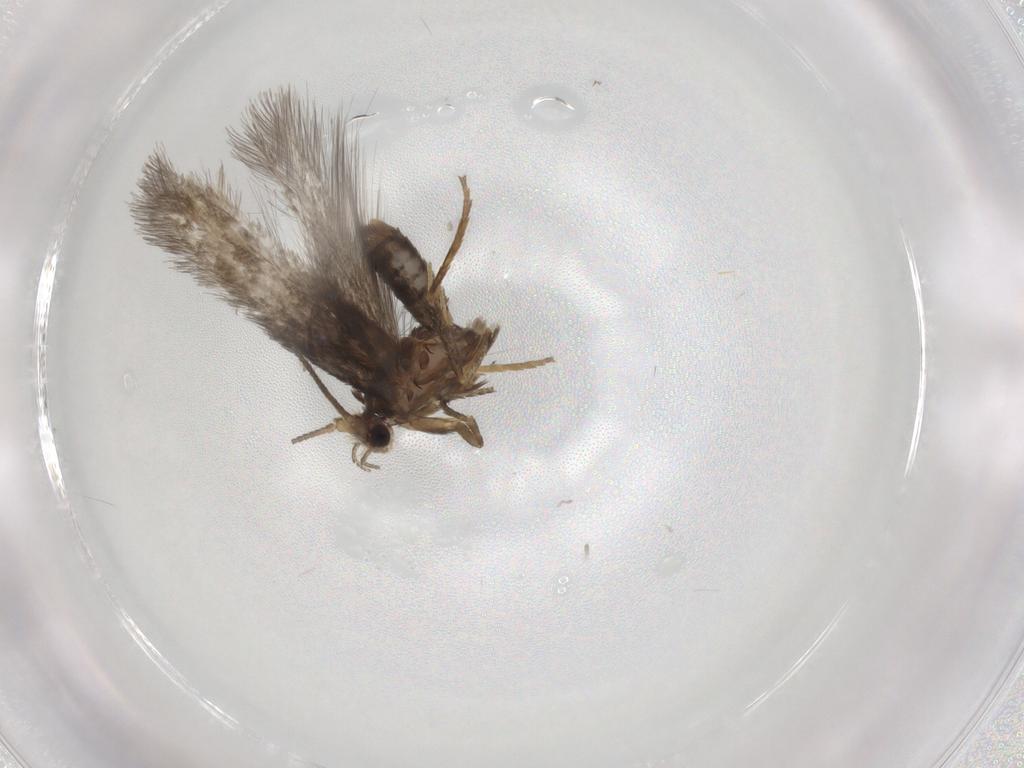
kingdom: Animalia
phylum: Arthropoda
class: Insecta
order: Lepidoptera
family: Nepticulidae
